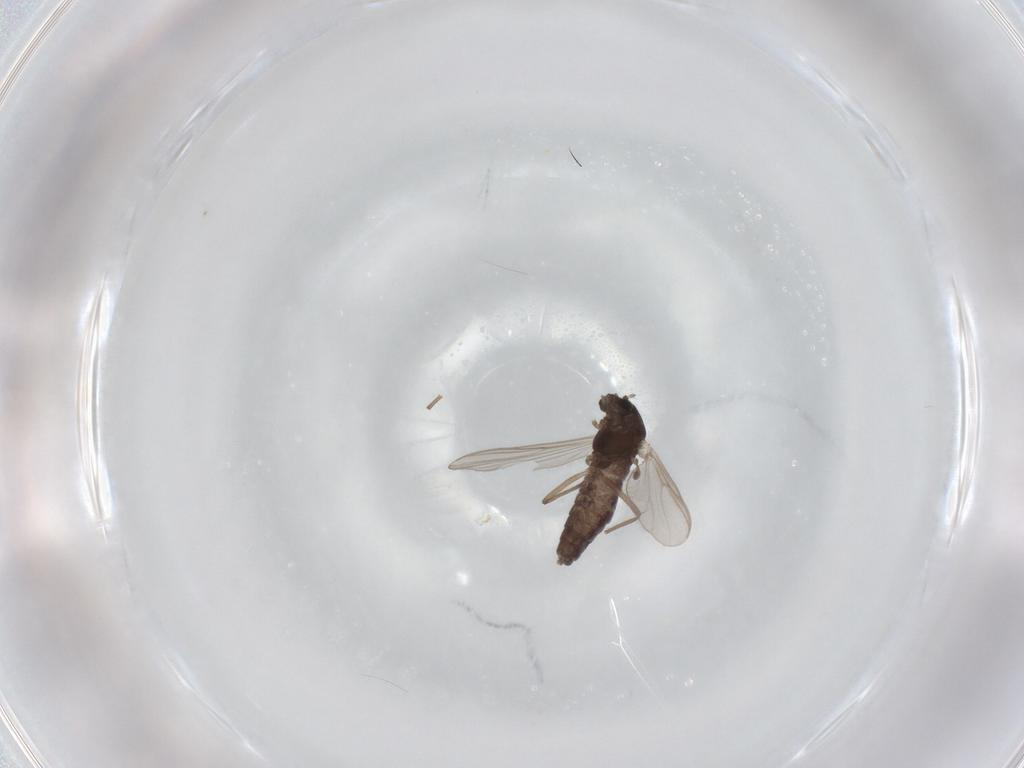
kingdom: Animalia
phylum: Arthropoda
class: Insecta
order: Diptera
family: Chironomidae
